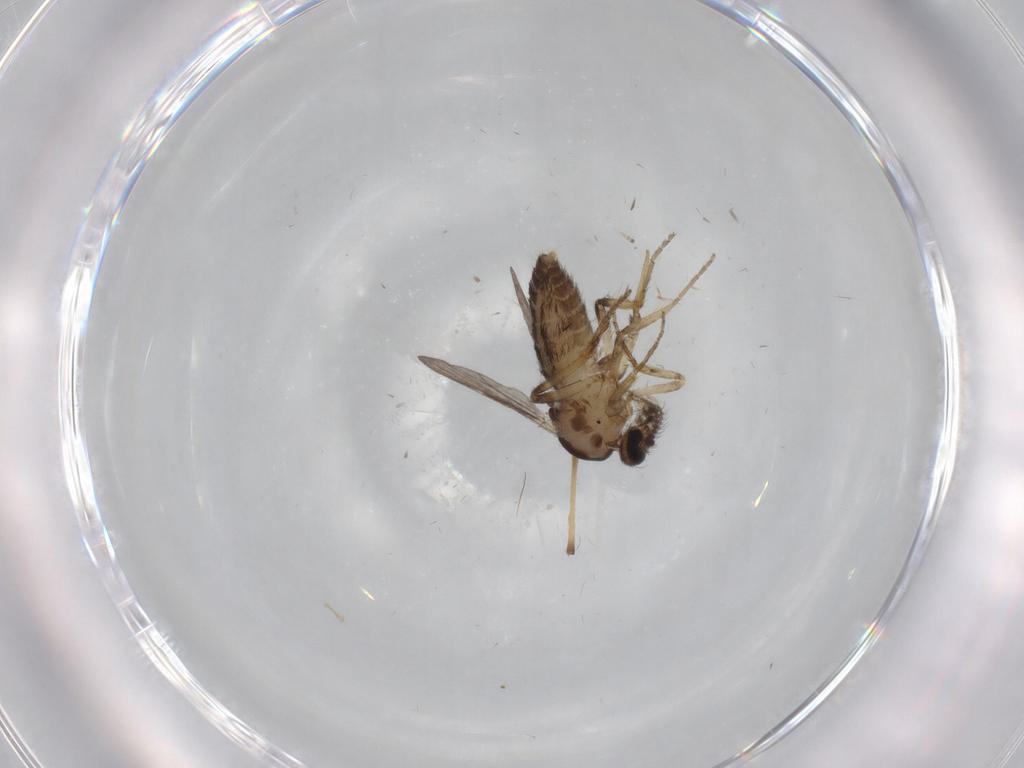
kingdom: Animalia
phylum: Arthropoda
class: Insecta
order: Diptera
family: Ceratopogonidae
